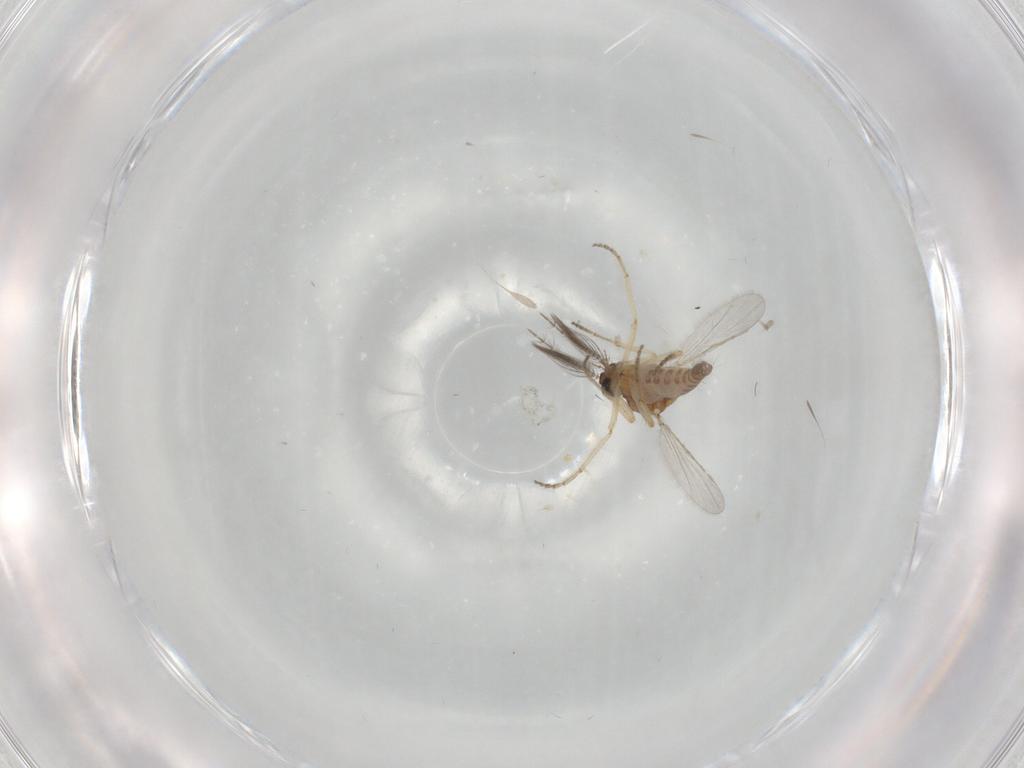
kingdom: Animalia
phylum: Arthropoda
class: Insecta
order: Diptera
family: Ceratopogonidae
